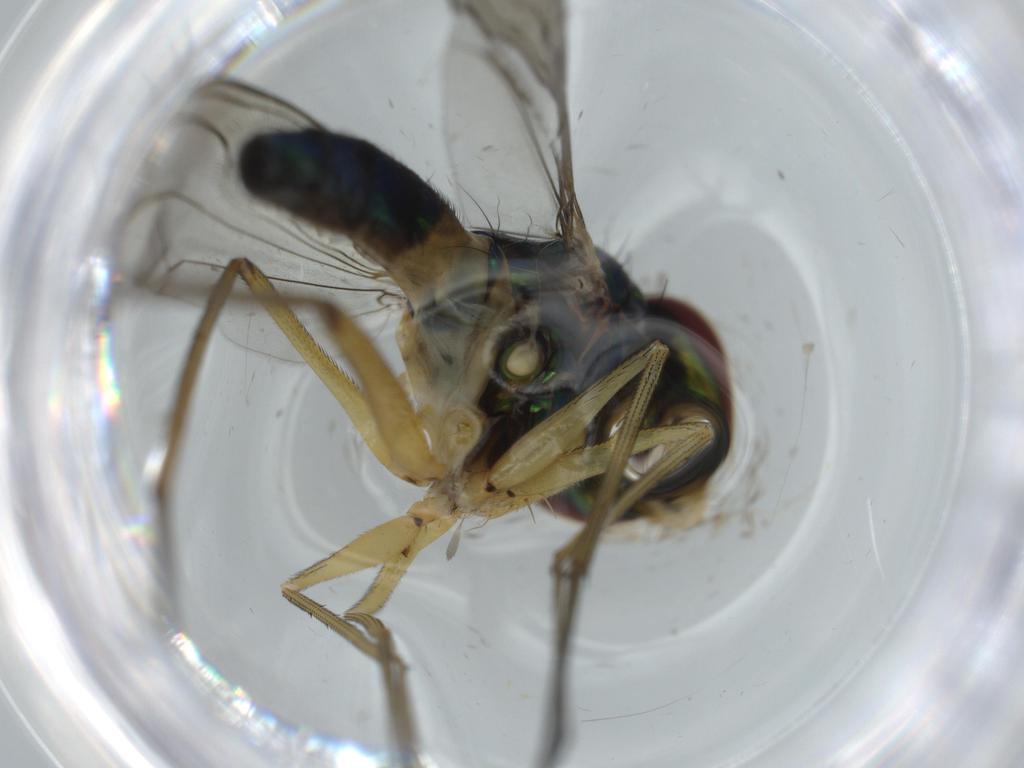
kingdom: Animalia
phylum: Arthropoda
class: Insecta
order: Diptera
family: Dolichopodidae
